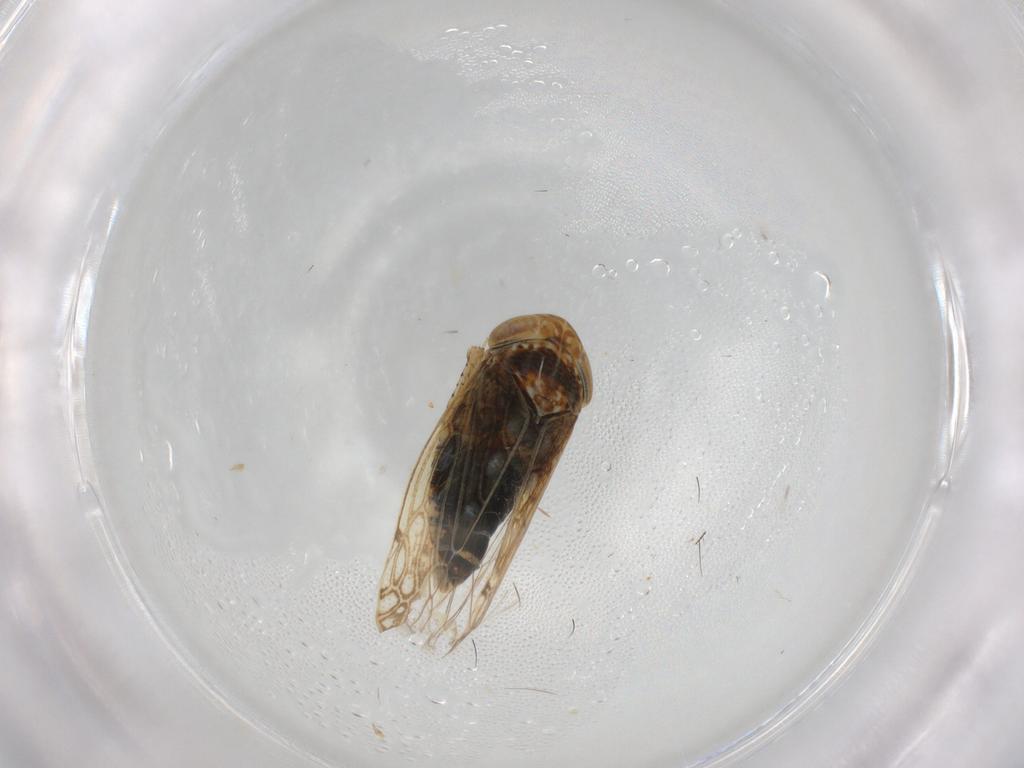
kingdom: Animalia
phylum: Arthropoda
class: Insecta
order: Hemiptera
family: Cicadellidae
